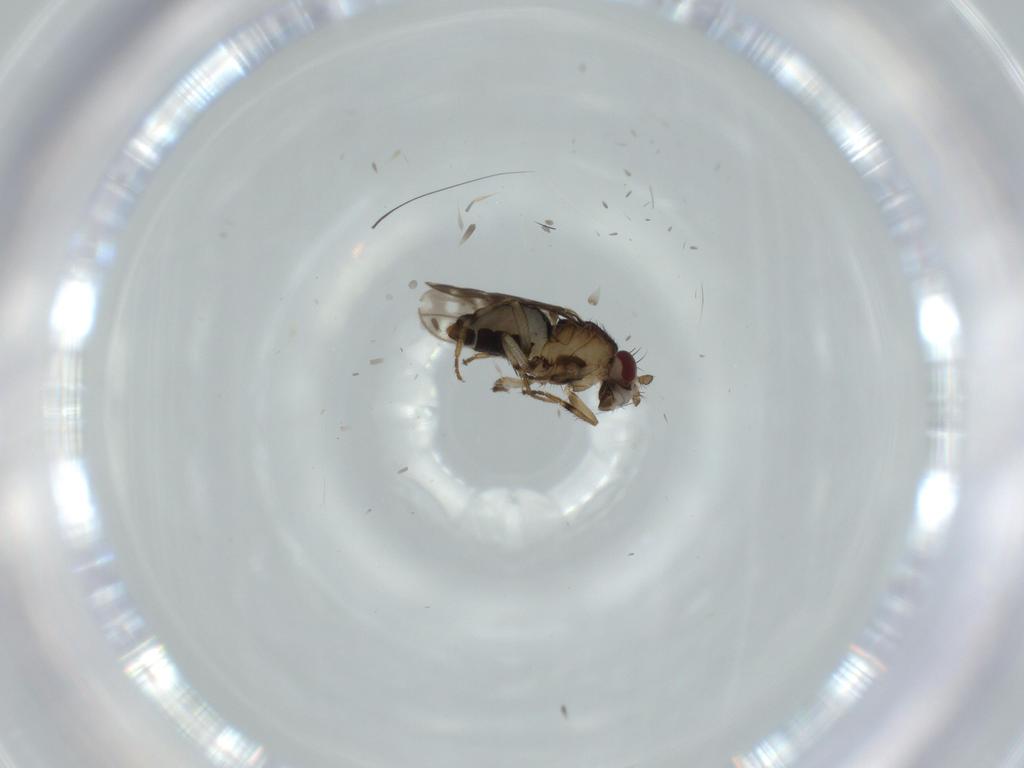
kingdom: Animalia
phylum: Arthropoda
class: Insecta
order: Diptera
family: Sphaeroceridae
